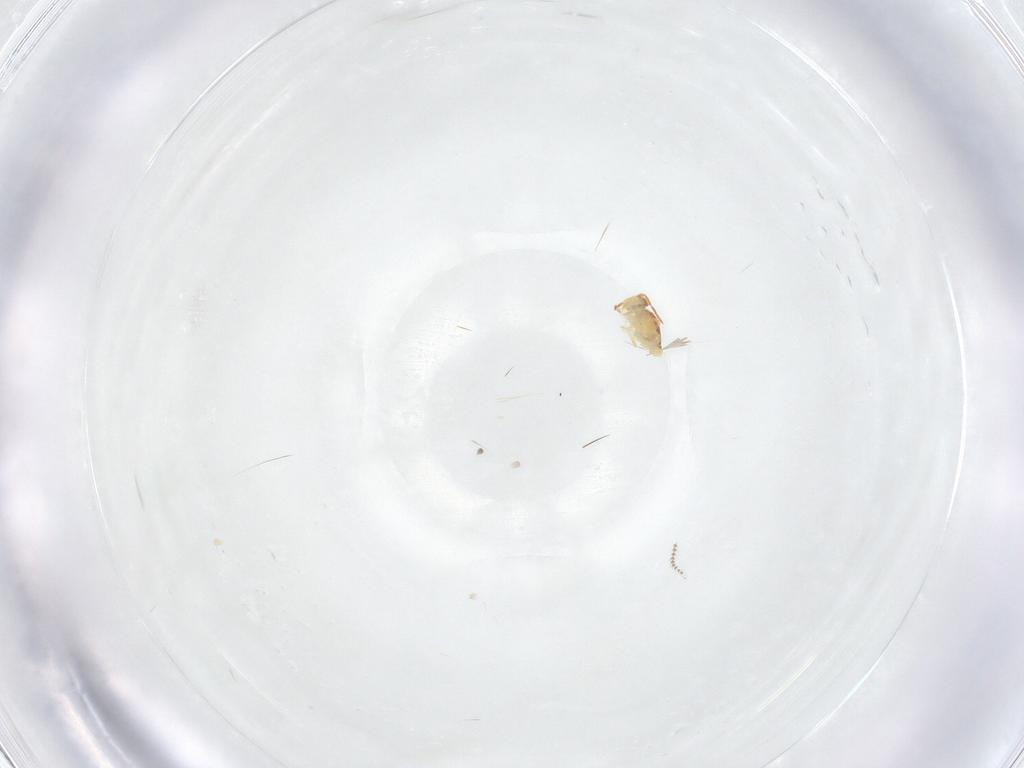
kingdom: Animalia
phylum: Arthropoda
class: Collembola
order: Symphypleona
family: Bourletiellidae
